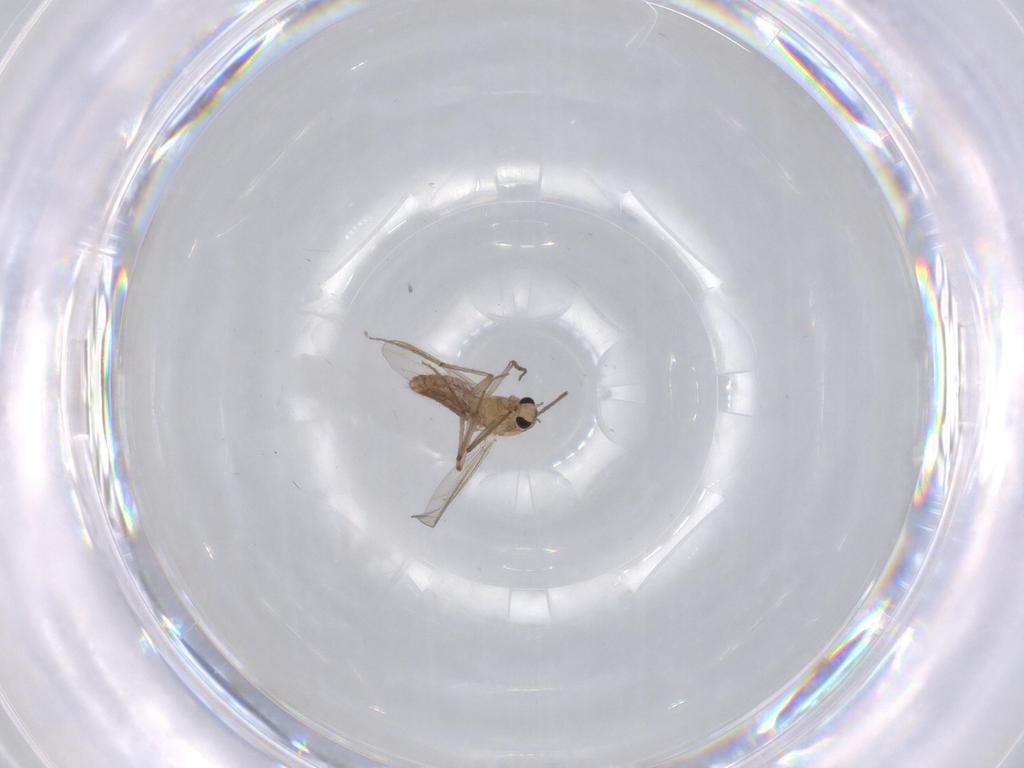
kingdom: Animalia
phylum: Arthropoda
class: Insecta
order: Diptera
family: Chironomidae
